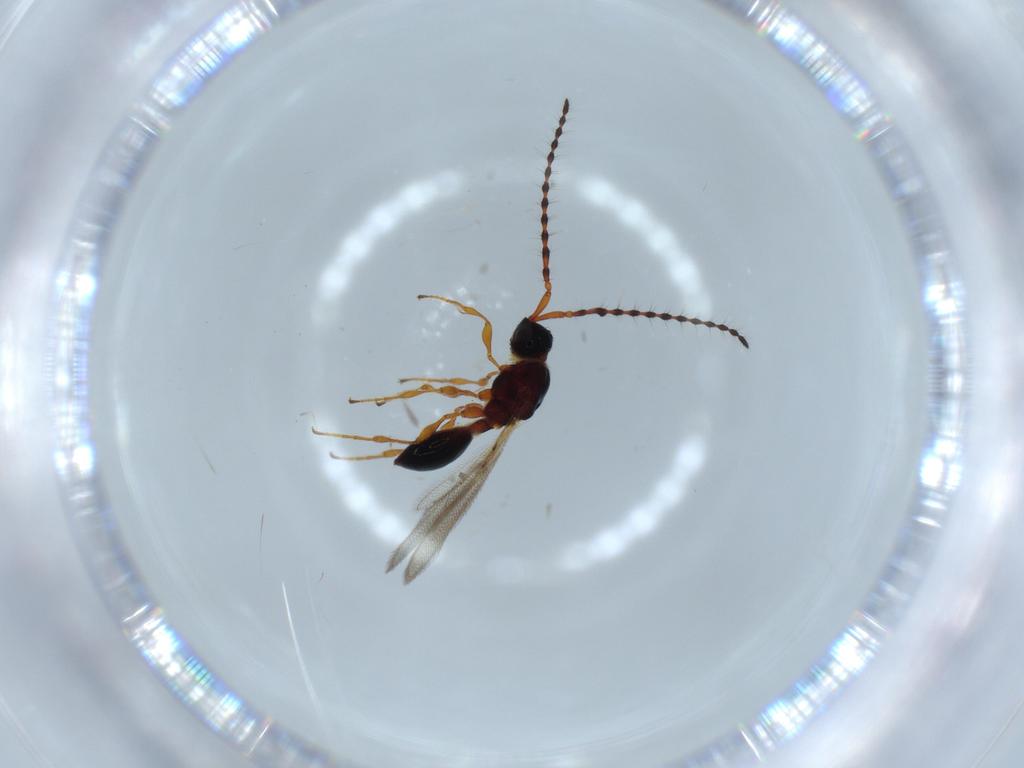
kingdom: Animalia
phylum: Arthropoda
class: Insecta
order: Hymenoptera
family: Diapriidae
